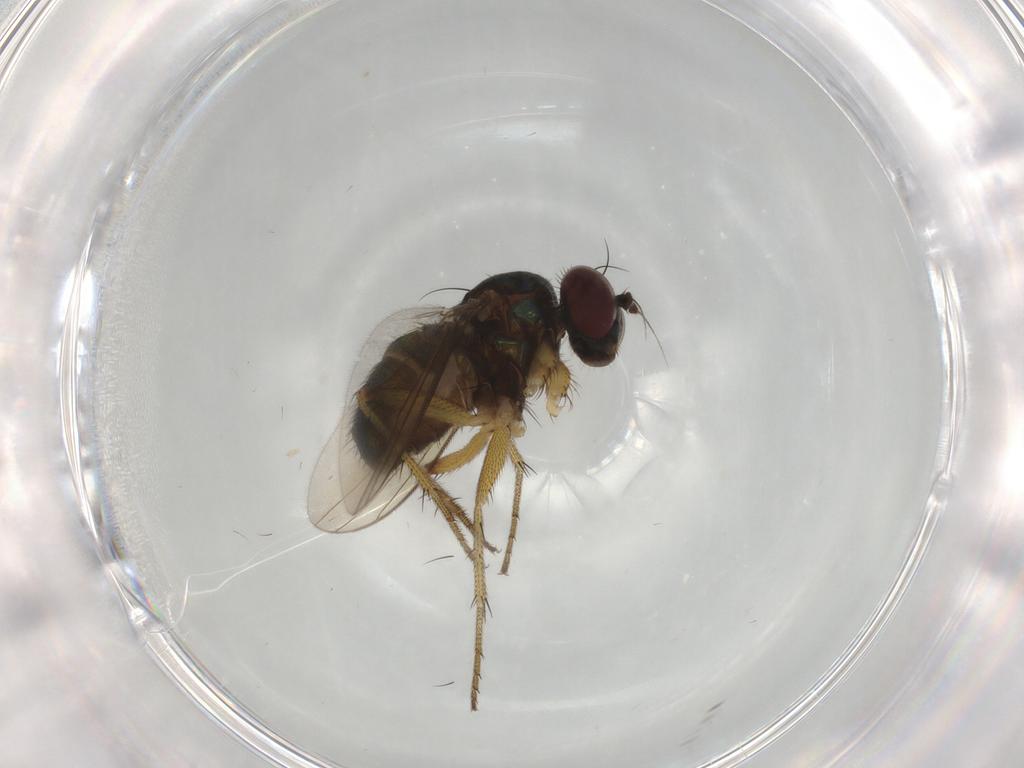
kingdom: Animalia
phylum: Arthropoda
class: Insecta
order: Diptera
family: Dolichopodidae
